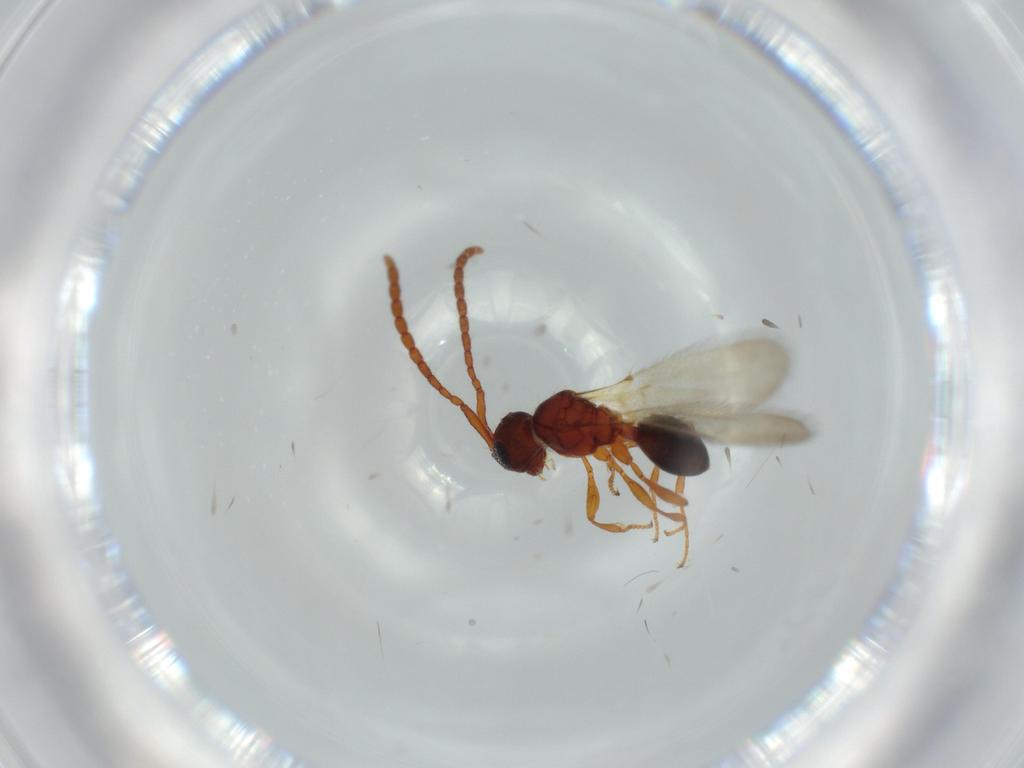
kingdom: Animalia
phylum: Arthropoda
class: Insecta
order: Hymenoptera
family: Diapriidae
